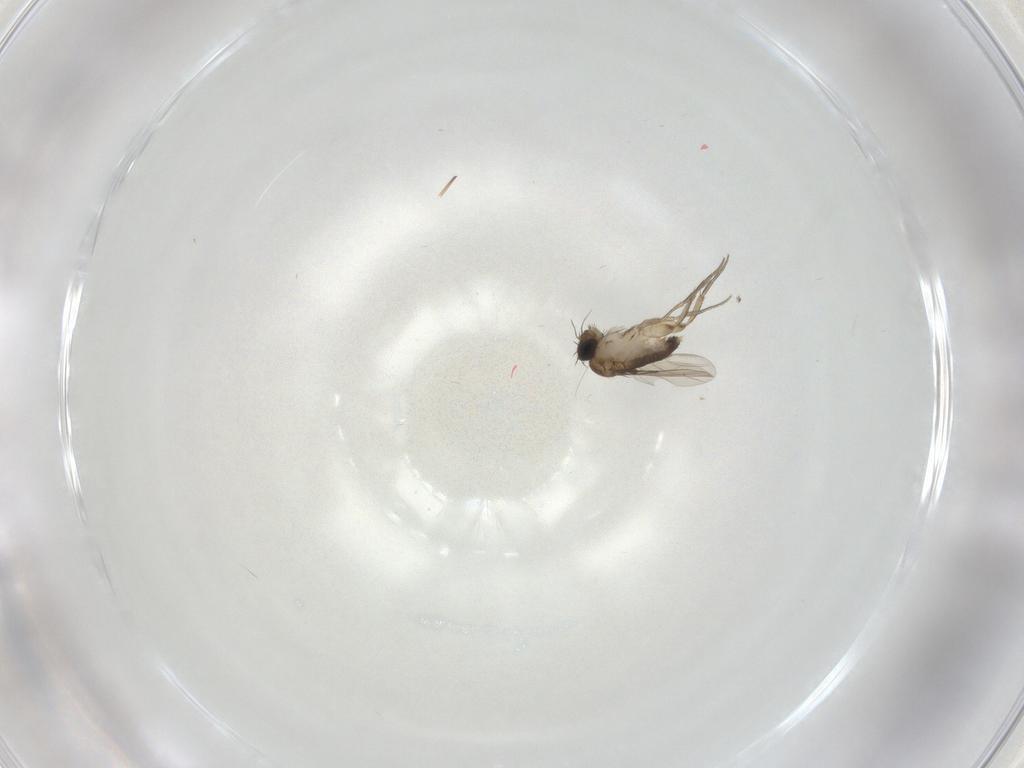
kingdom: Animalia
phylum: Arthropoda
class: Insecta
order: Diptera
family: Phoridae
